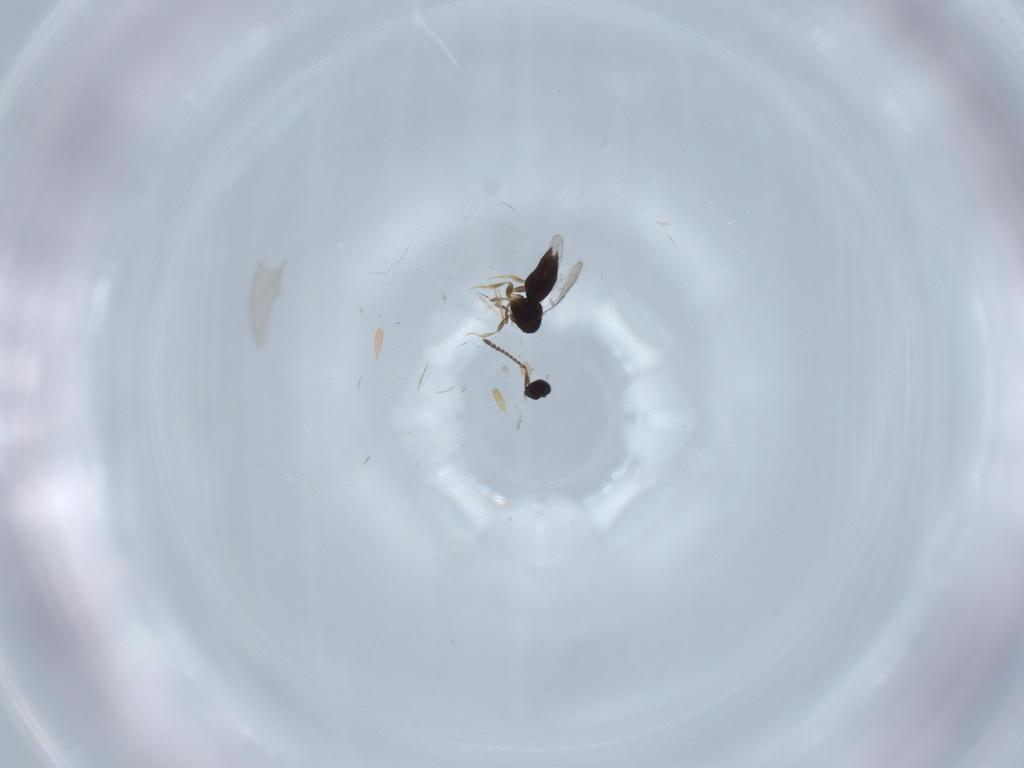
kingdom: Animalia
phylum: Arthropoda
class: Insecta
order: Hymenoptera
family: Ceraphronidae
